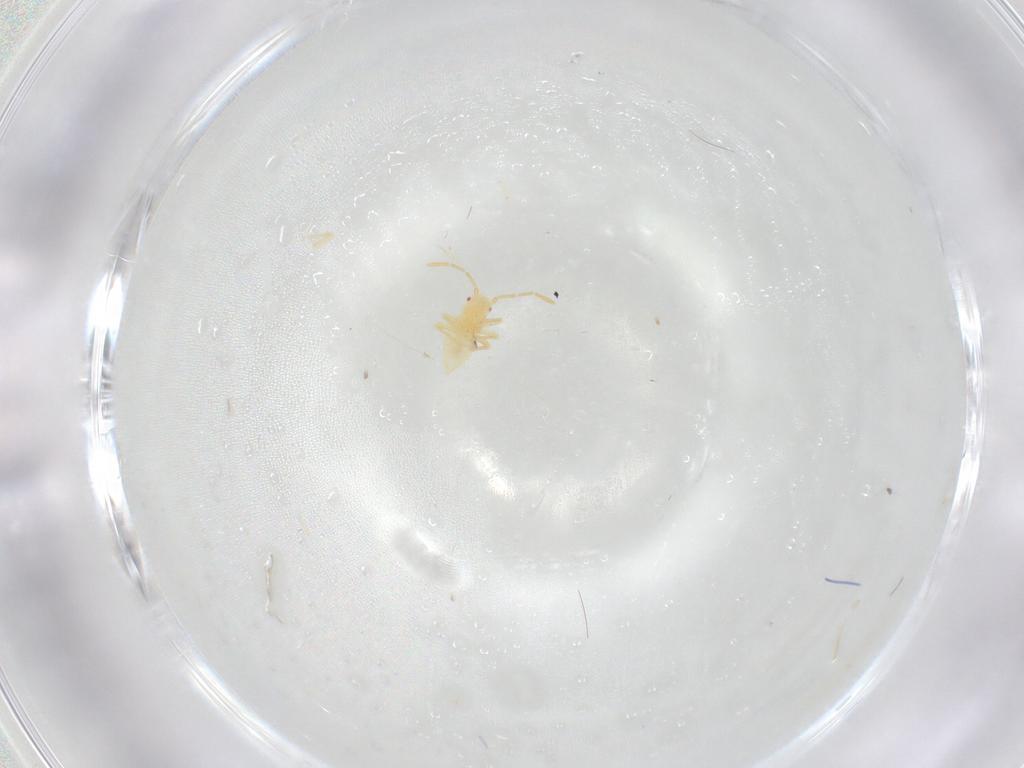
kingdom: Animalia
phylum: Arthropoda
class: Insecta
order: Hemiptera
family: Miridae
